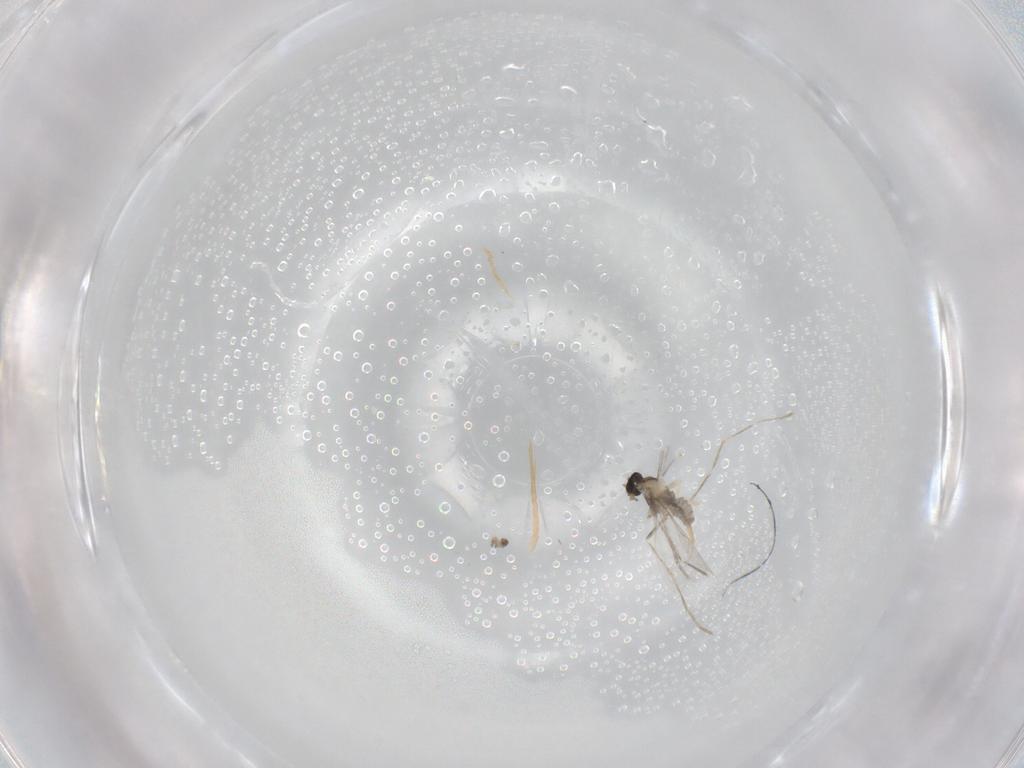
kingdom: Animalia
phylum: Arthropoda
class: Insecta
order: Diptera
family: Cecidomyiidae
